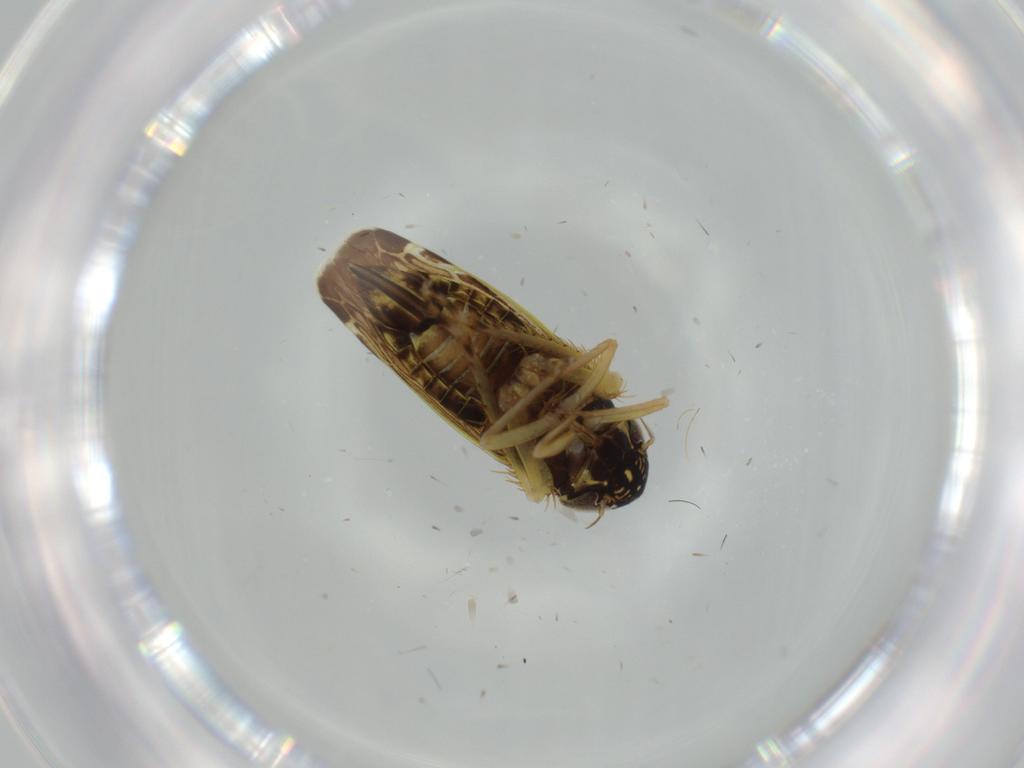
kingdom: Animalia
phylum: Arthropoda
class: Insecta
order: Hemiptera
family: Cicadellidae
